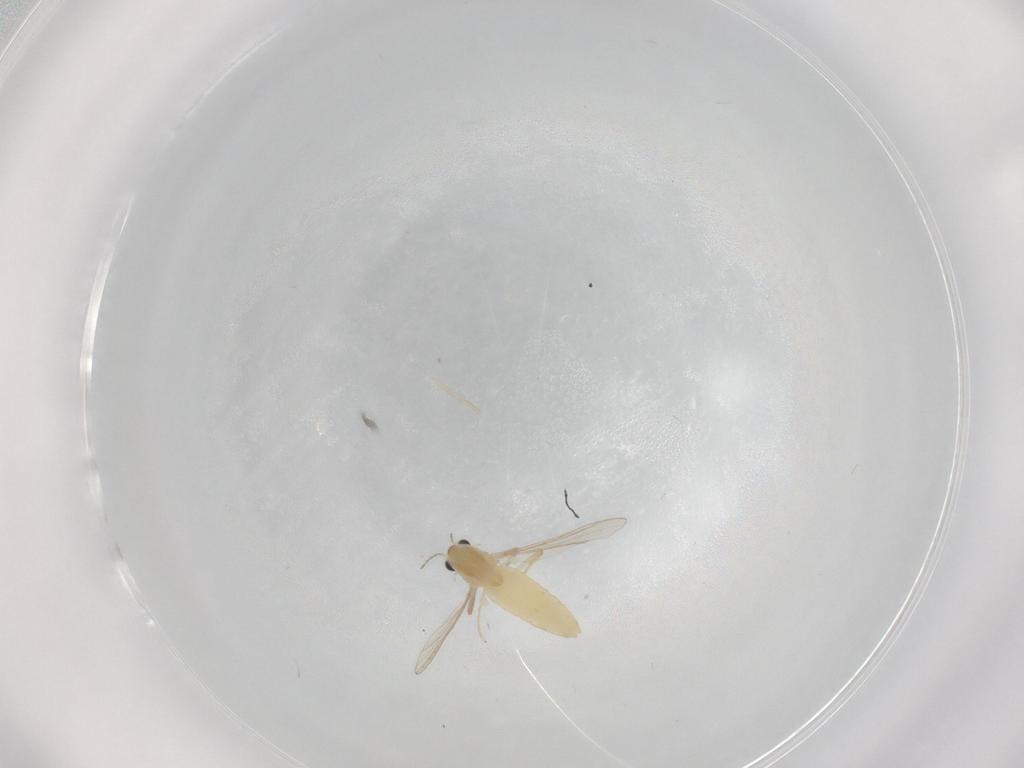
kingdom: Animalia
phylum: Arthropoda
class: Insecta
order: Diptera
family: Chironomidae
